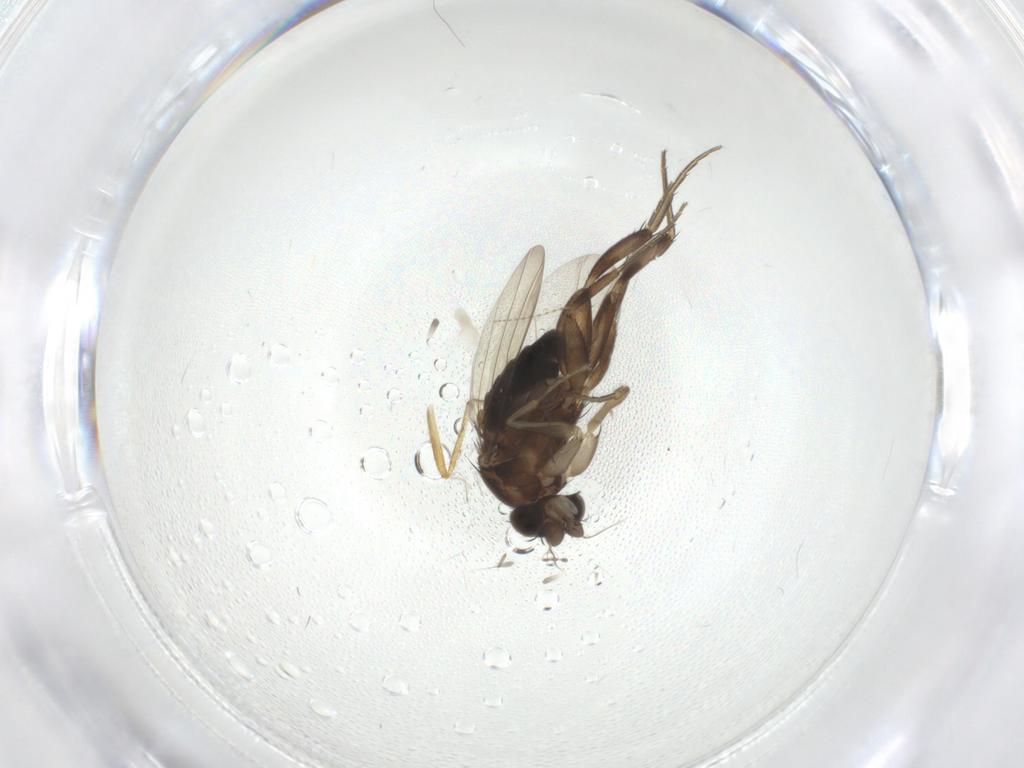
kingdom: Animalia
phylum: Arthropoda
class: Insecta
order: Diptera
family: Phoridae
